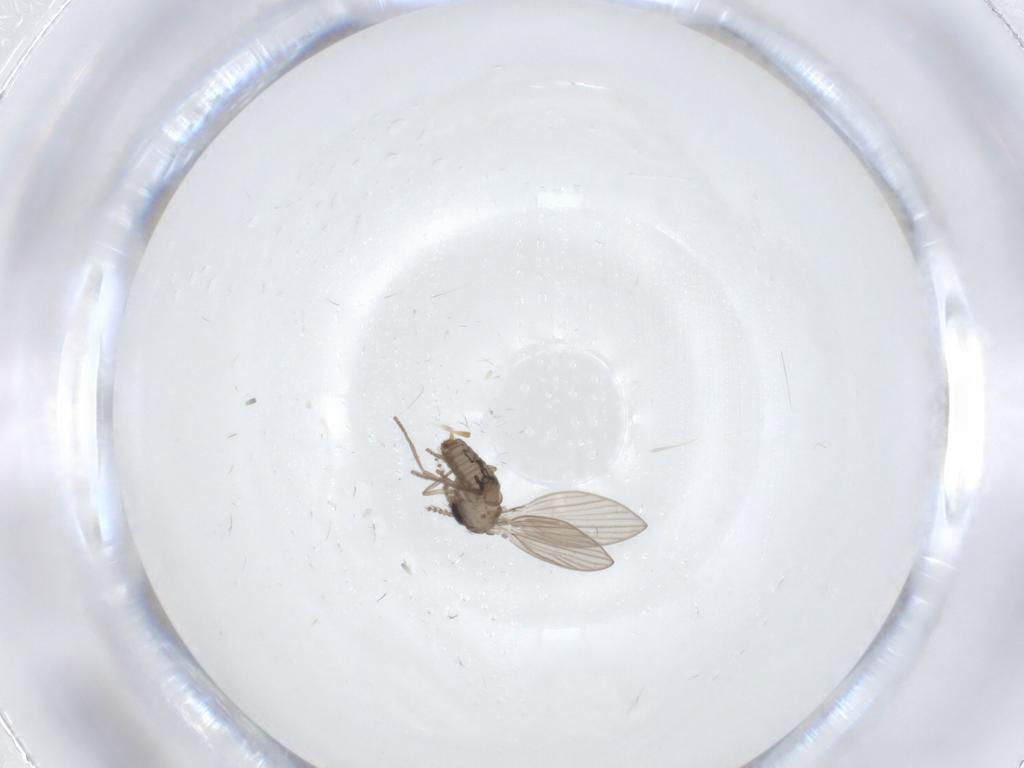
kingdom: Animalia
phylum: Arthropoda
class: Insecta
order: Diptera
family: Psychodidae
